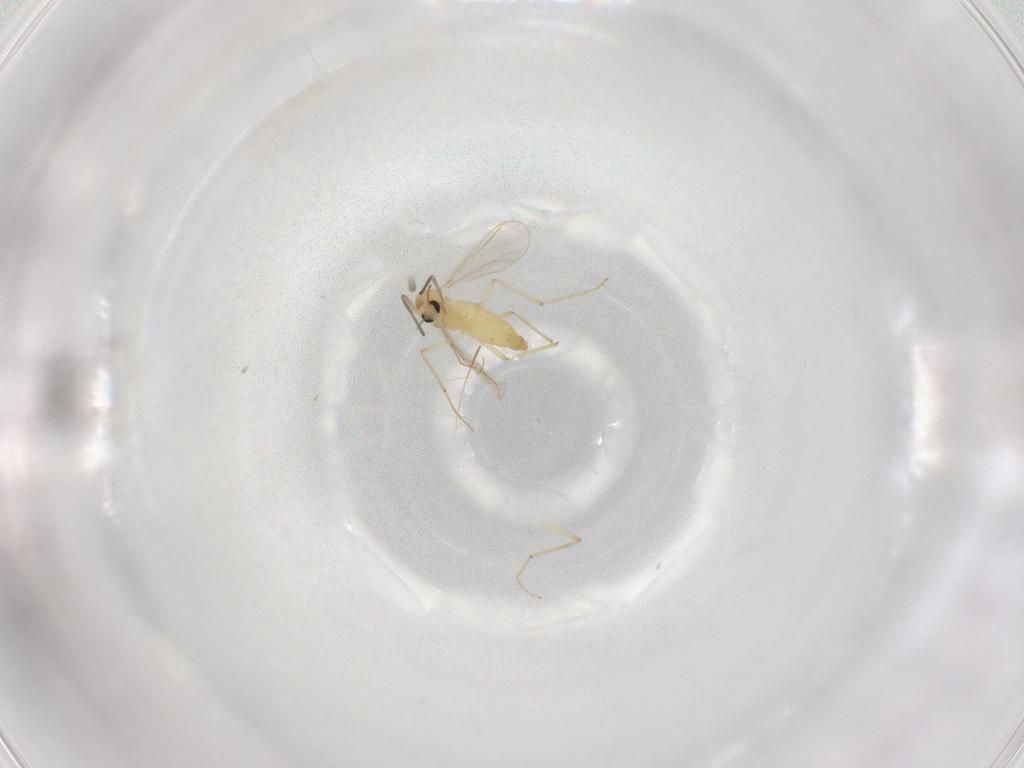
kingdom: Animalia
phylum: Arthropoda
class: Insecta
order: Diptera
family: Chironomidae
